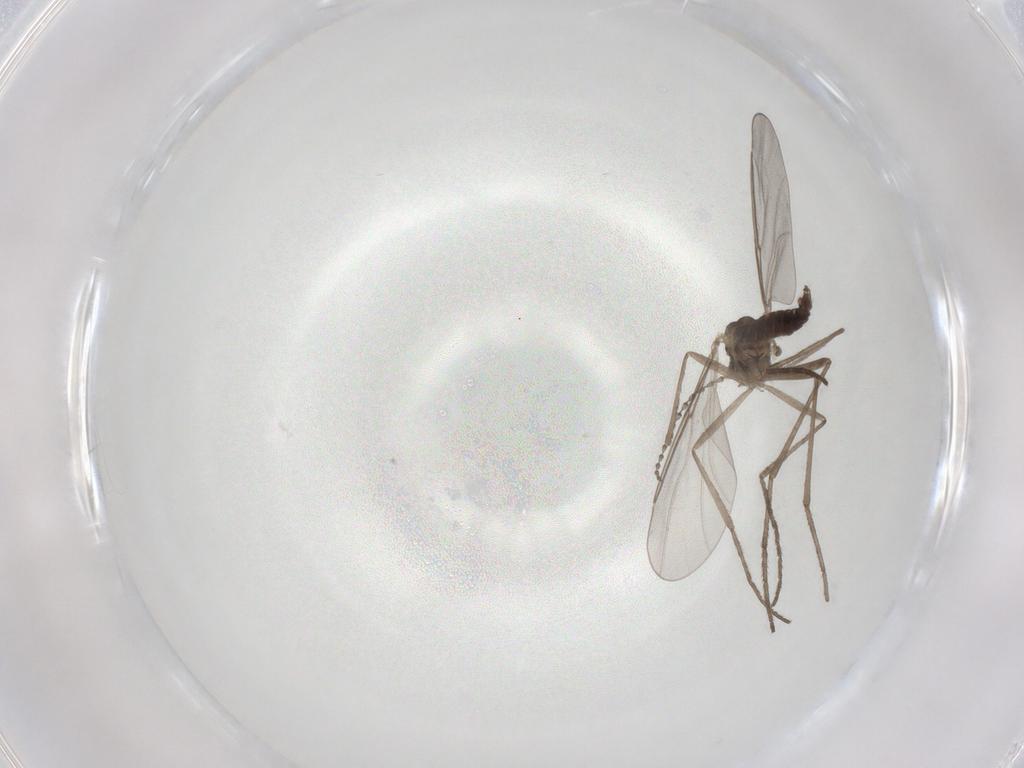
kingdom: Animalia
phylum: Arthropoda
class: Insecta
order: Diptera
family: Cecidomyiidae
